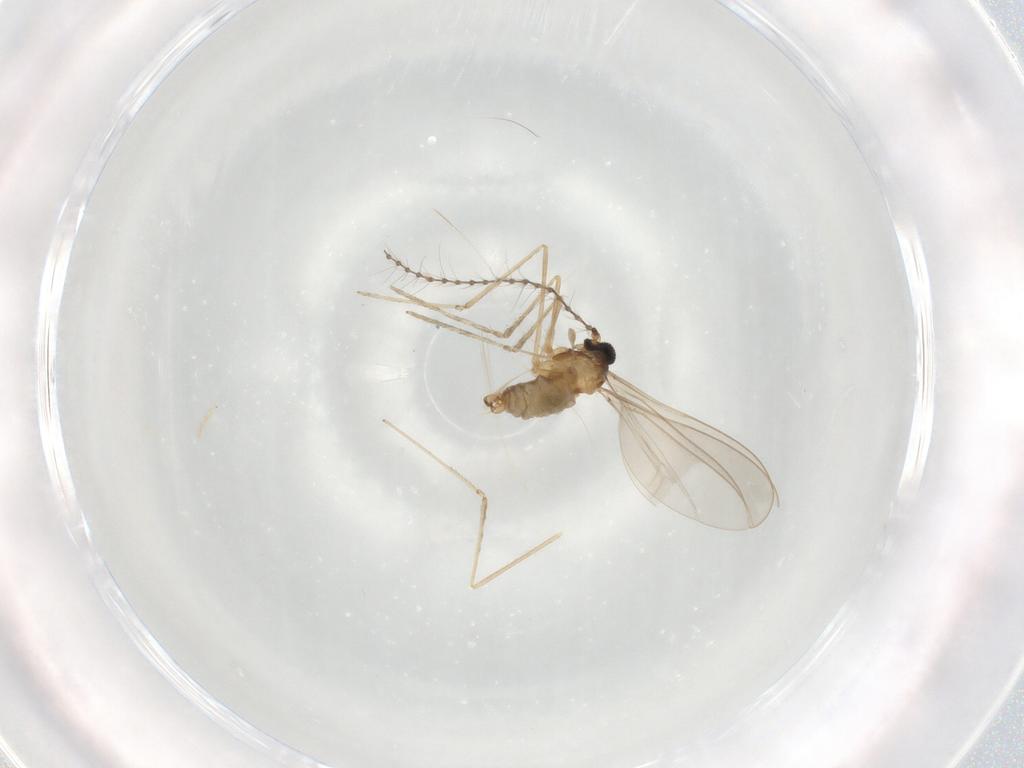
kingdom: Animalia
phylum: Arthropoda
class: Insecta
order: Diptera
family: Cecidomyiidae
